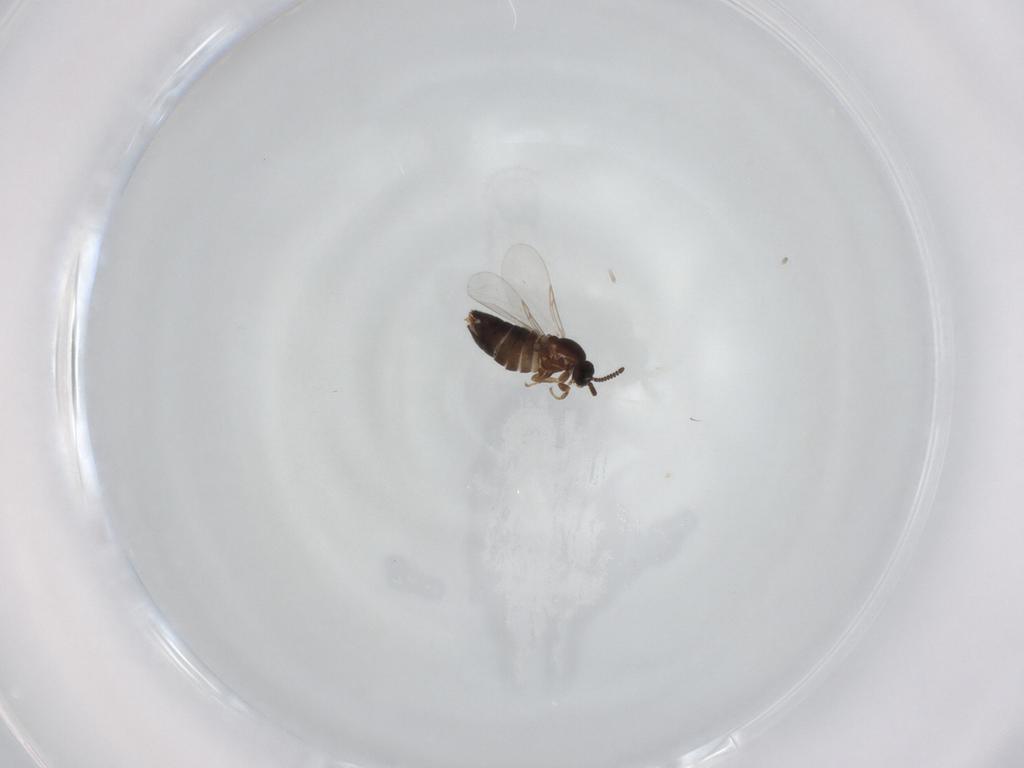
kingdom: Animalia
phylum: Arthropoda
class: Insecta
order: Diptera
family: Scatopsidae
